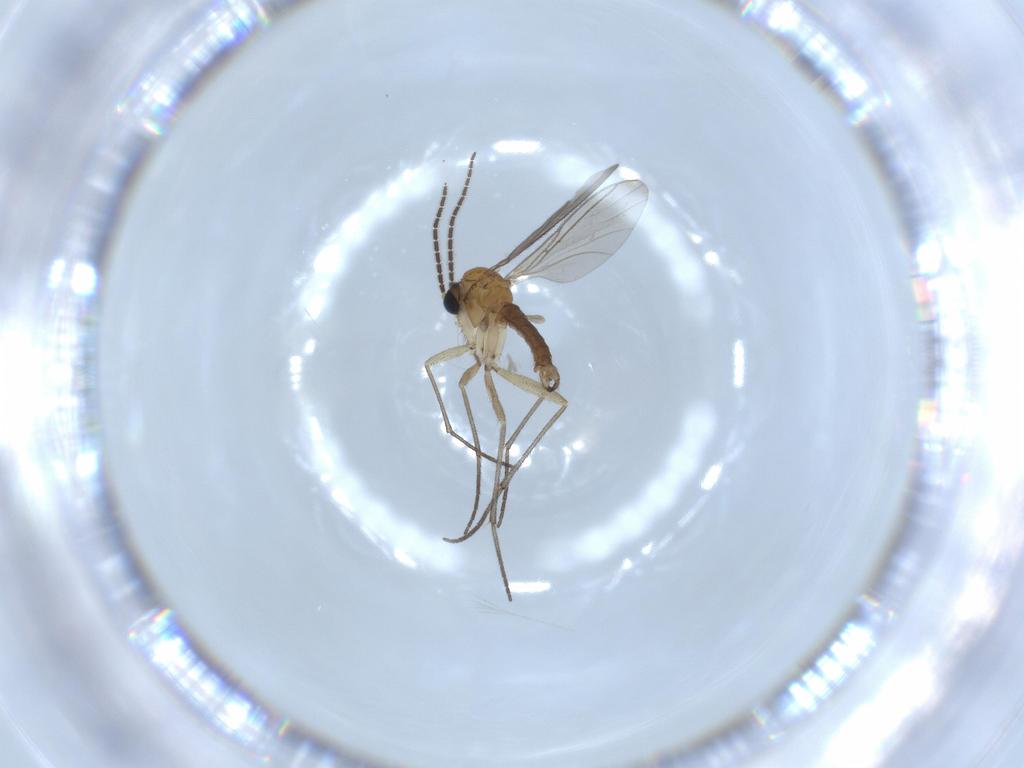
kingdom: Animalia
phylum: Arthropoda
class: Insecta
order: Diptera
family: Sciaridae
